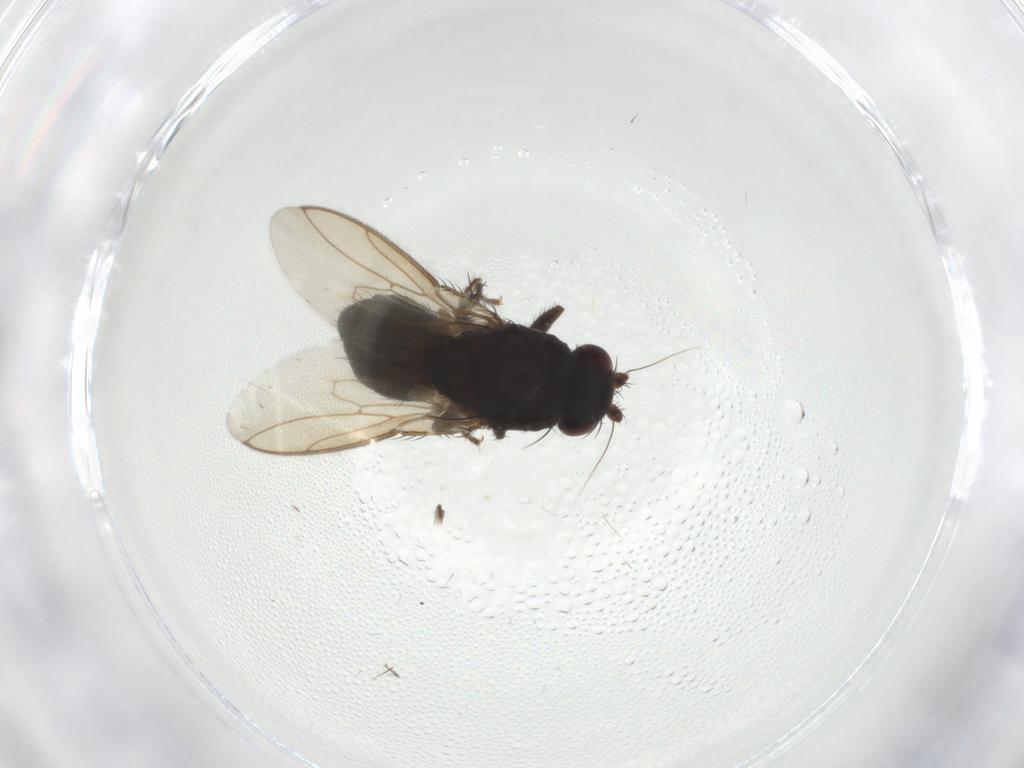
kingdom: Animalia
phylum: Arthropoda
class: Insecta
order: Diptera
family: Sphaeroceridae
